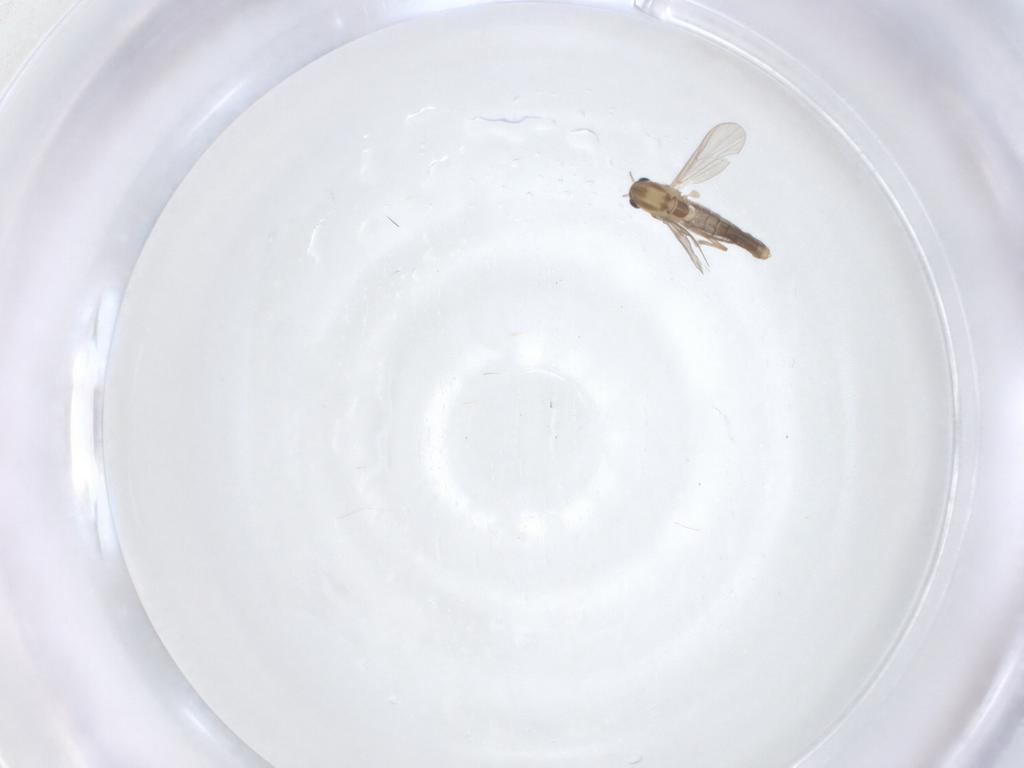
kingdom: Animalia
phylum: Arthropoda
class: Insecta
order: Diptera
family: Chironomidae
